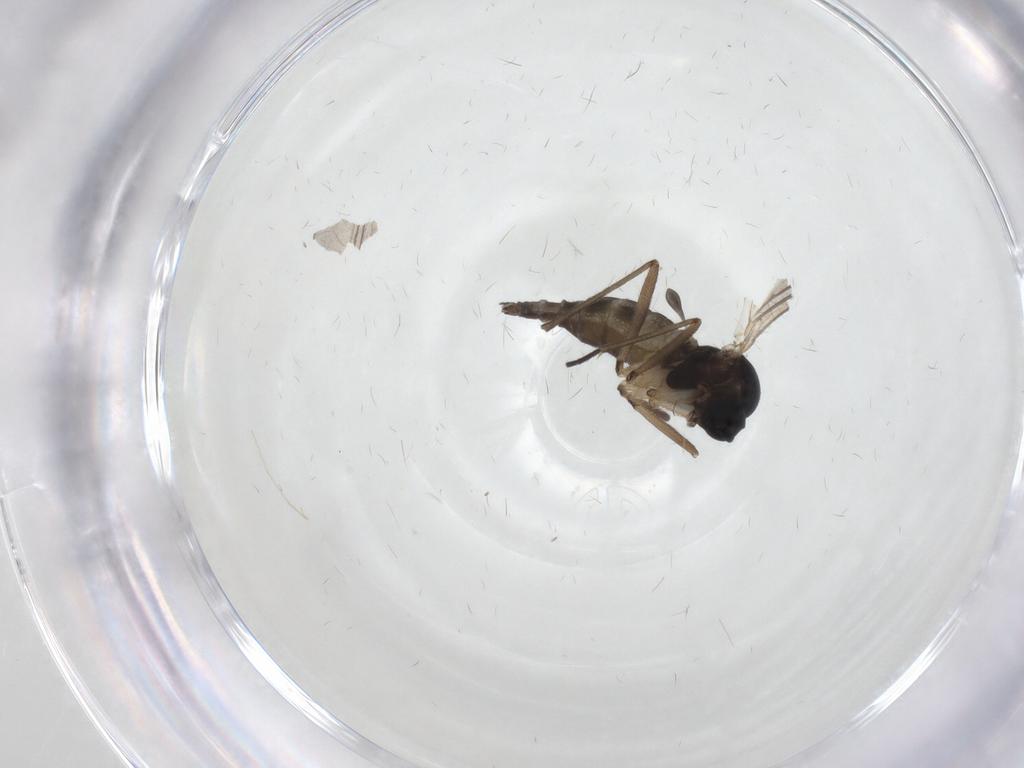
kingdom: Animalia
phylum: Arthropoda
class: Insecta
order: Diptera
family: Sciaridae
